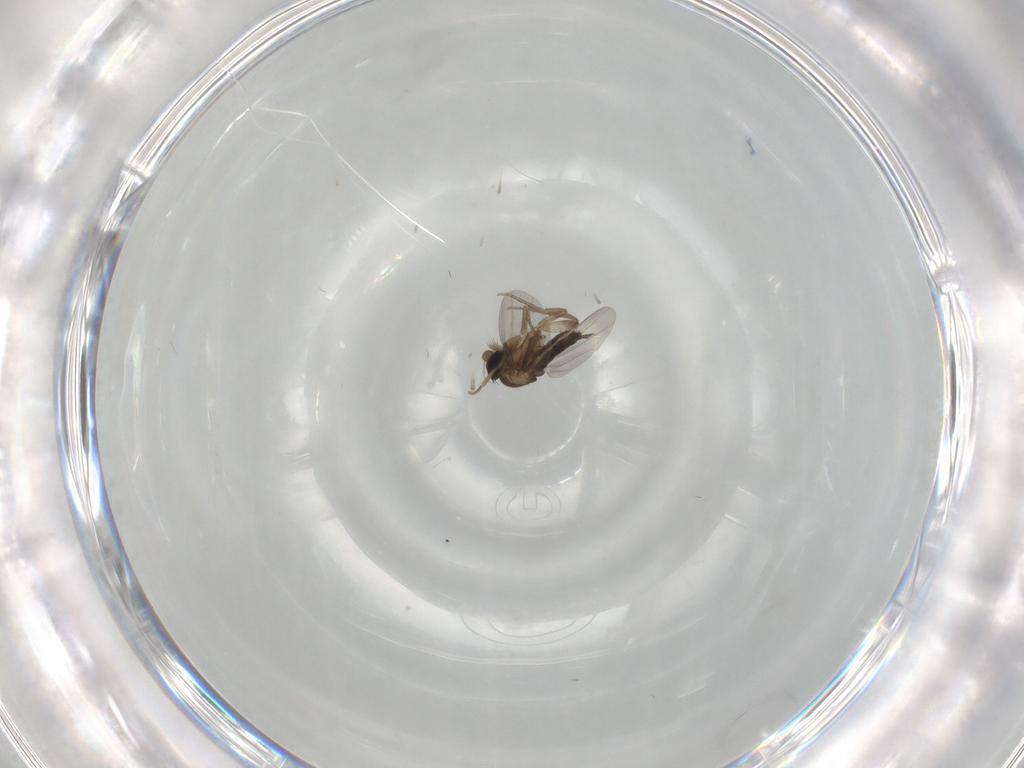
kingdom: Animalia
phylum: Arthropoda
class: Insecta
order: Diptera
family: Phoridae
